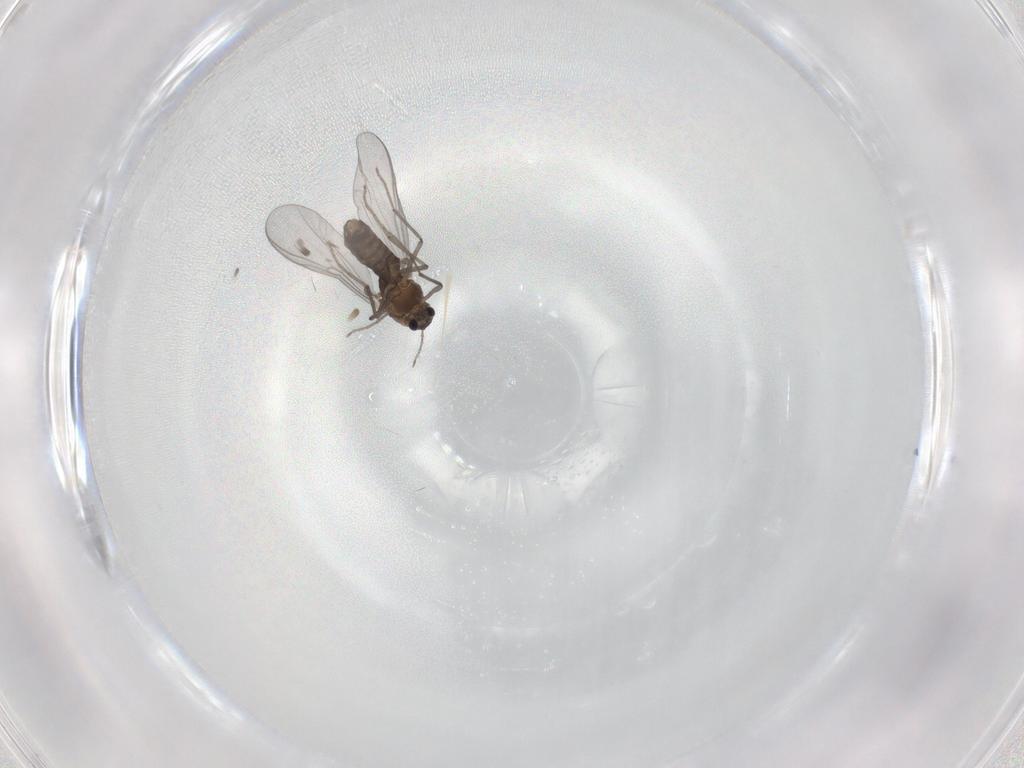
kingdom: Animalia
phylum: Arthropoda
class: Insecta
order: Diptera
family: Chironomidae
